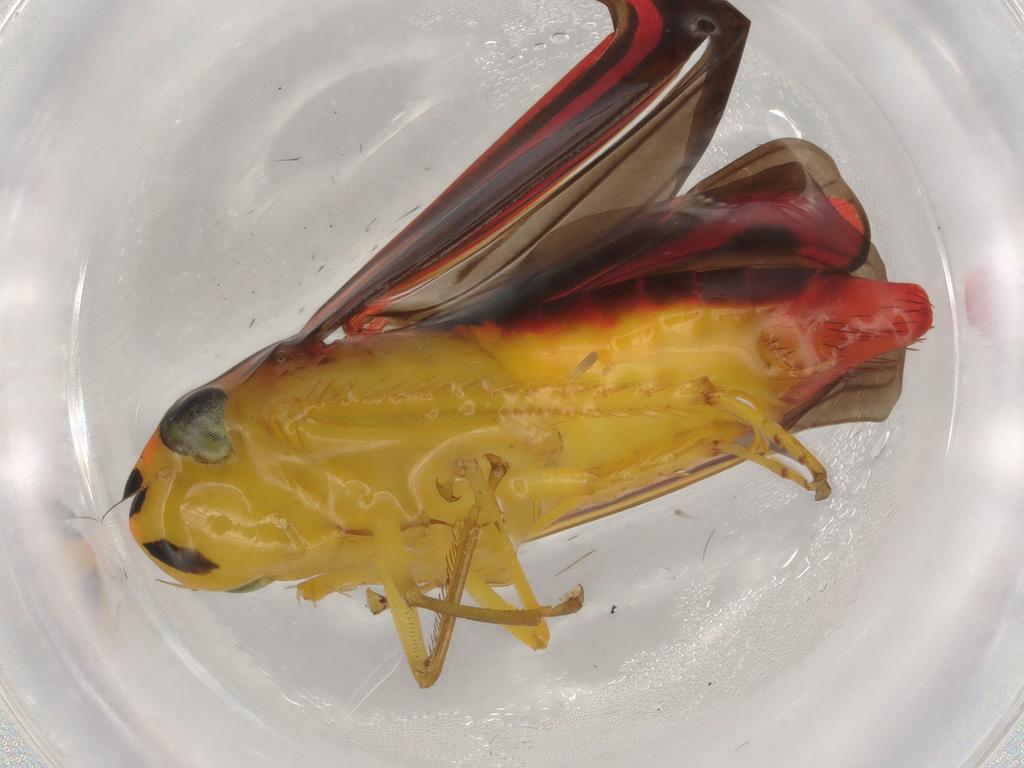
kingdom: Animalia
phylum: Arthropoda
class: Insecta
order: Hemiptera
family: Cicadellidae
